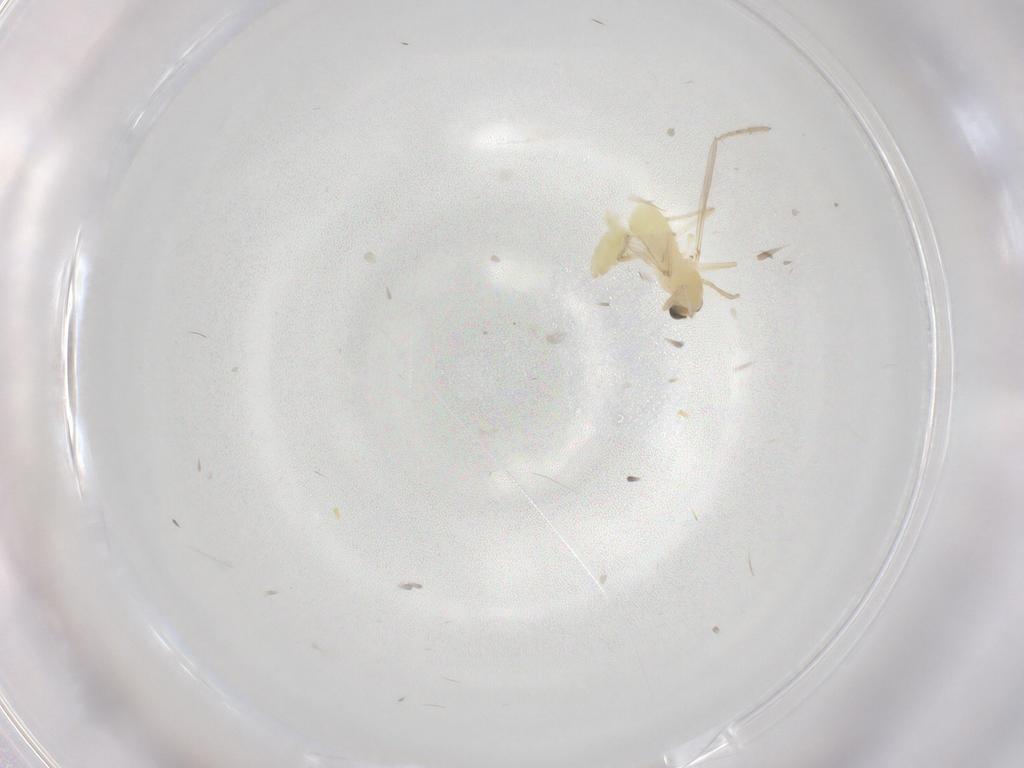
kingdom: Animalia
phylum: Arthropoda
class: Insecta
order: Diptera
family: Chironomidae
